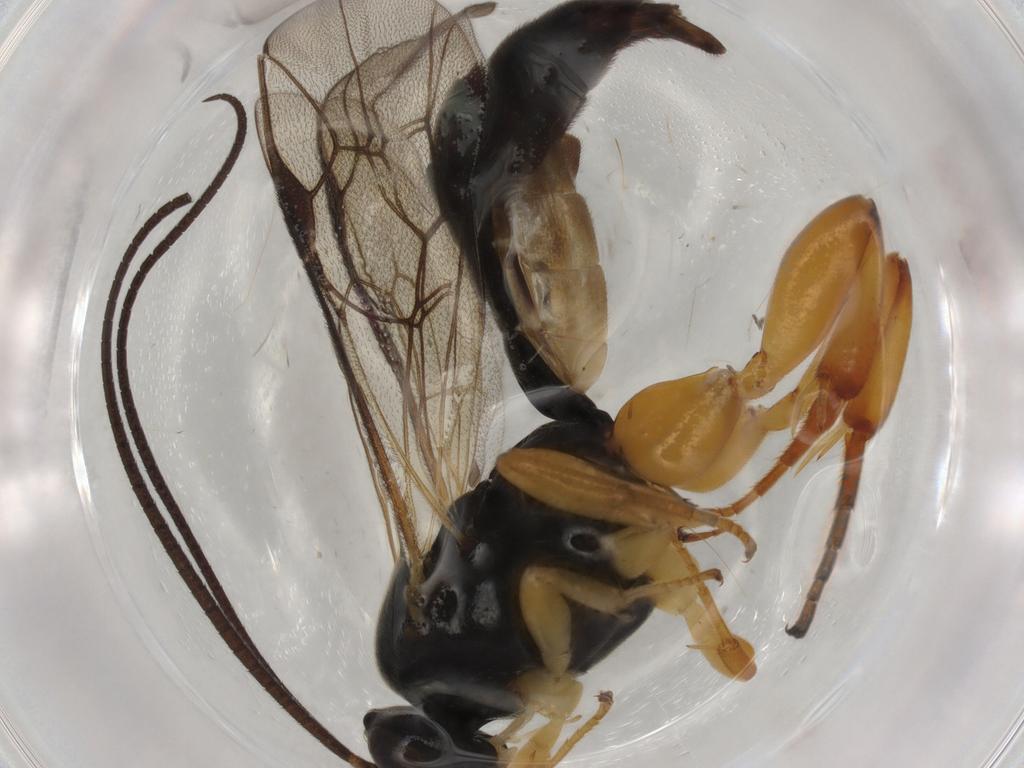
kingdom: Animalia
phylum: Arthropoda
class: Insecta
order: Hymenoptera
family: Ichneumonidae
